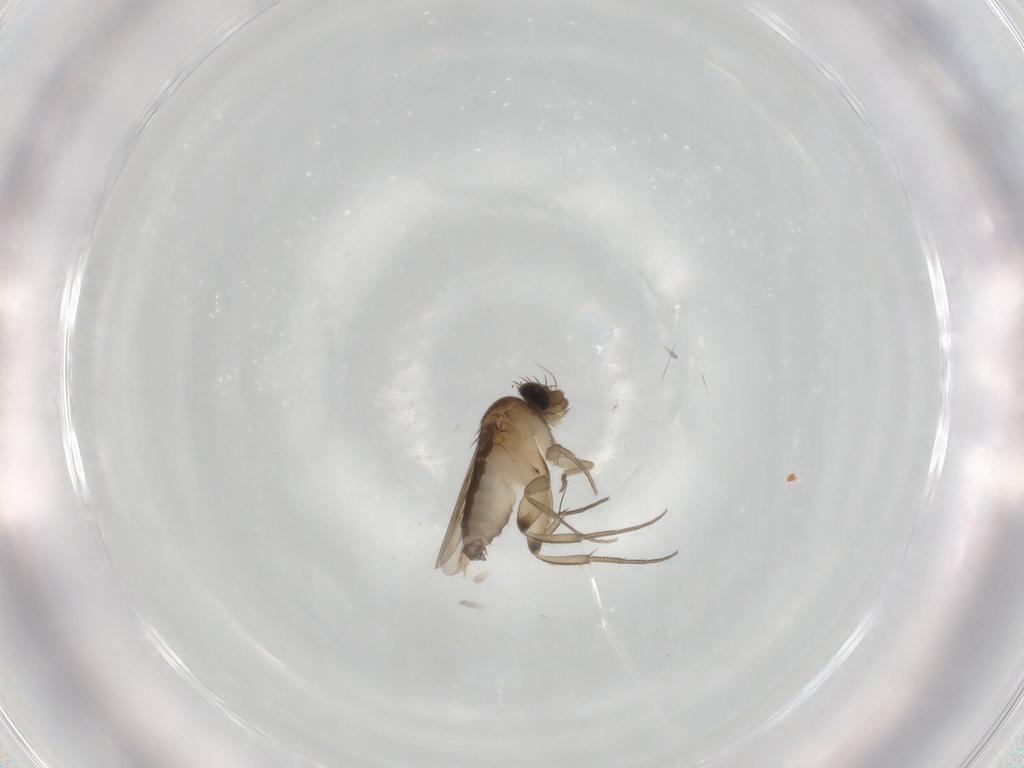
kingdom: Animalia
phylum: Arthropoda
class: Insecta
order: Diptera
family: Phoridae
